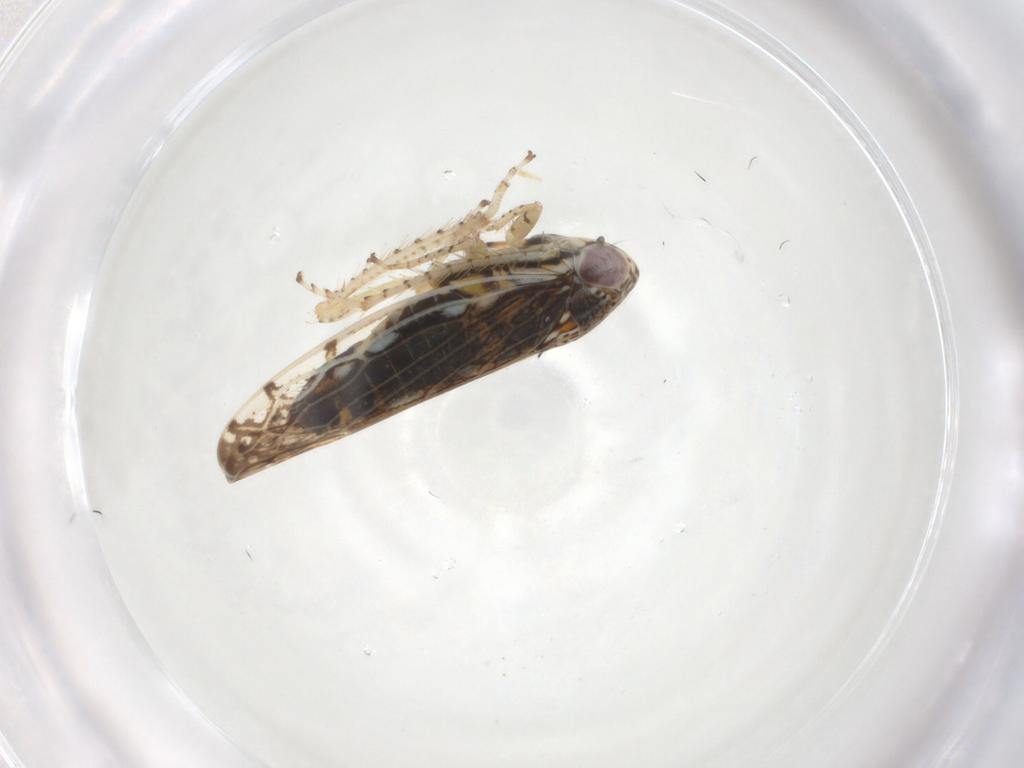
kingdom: Animalia
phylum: Arthropoda
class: Insecta
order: Hemiptera
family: Cicadellidae
